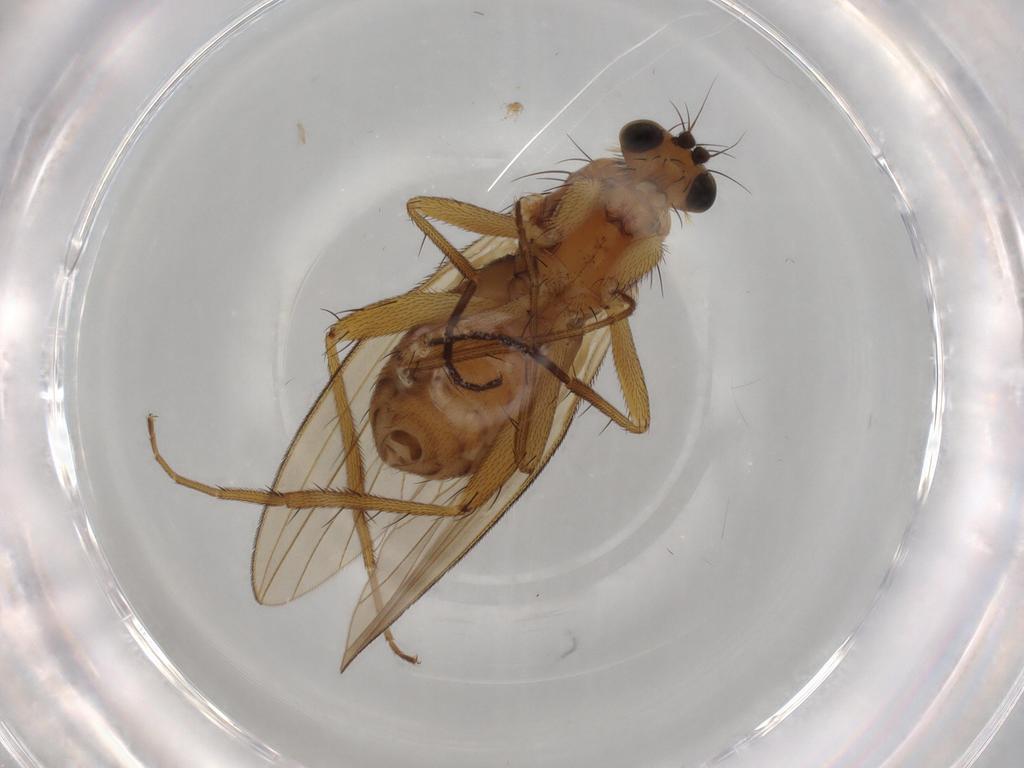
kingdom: Animalia
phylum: Arthropoda
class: Insecta
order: Diptera
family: Lonchopteridae
